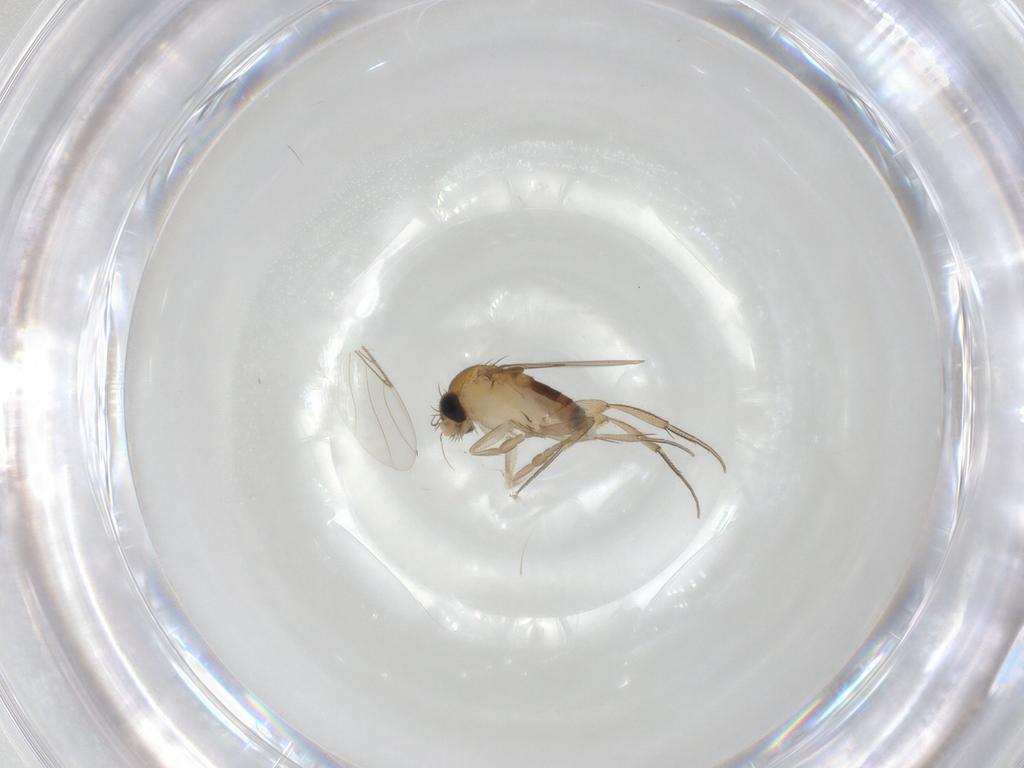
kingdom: Animalia
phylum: Arthropoda
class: Insecta
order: Diptera
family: Phoridae
